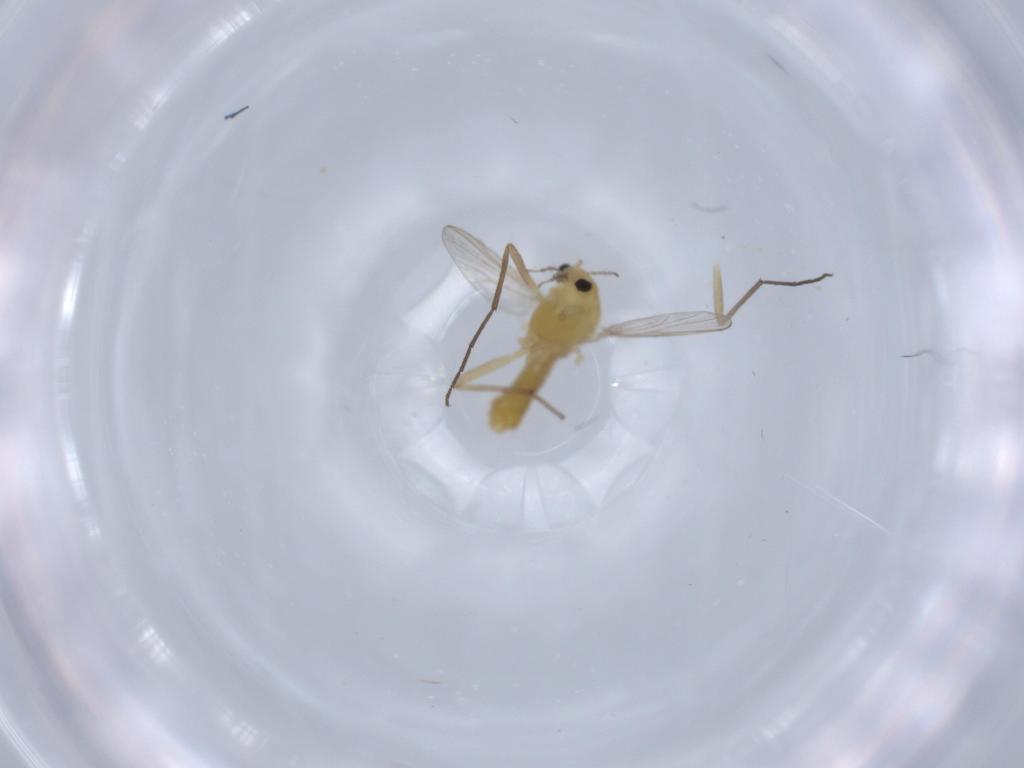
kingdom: Animalia
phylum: Arthropoda
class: Insecta
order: Diptera
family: Chironomidae
